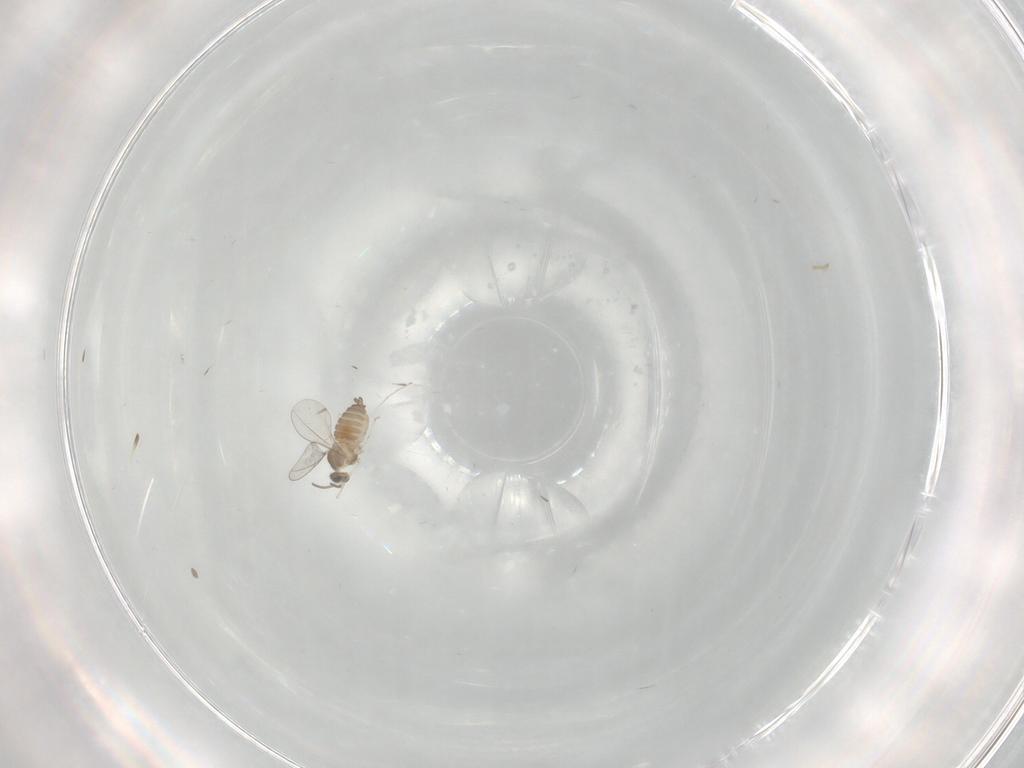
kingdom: Animalia
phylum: Arthropoda
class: Insecta
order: Diptera
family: Cecidomyiidae
